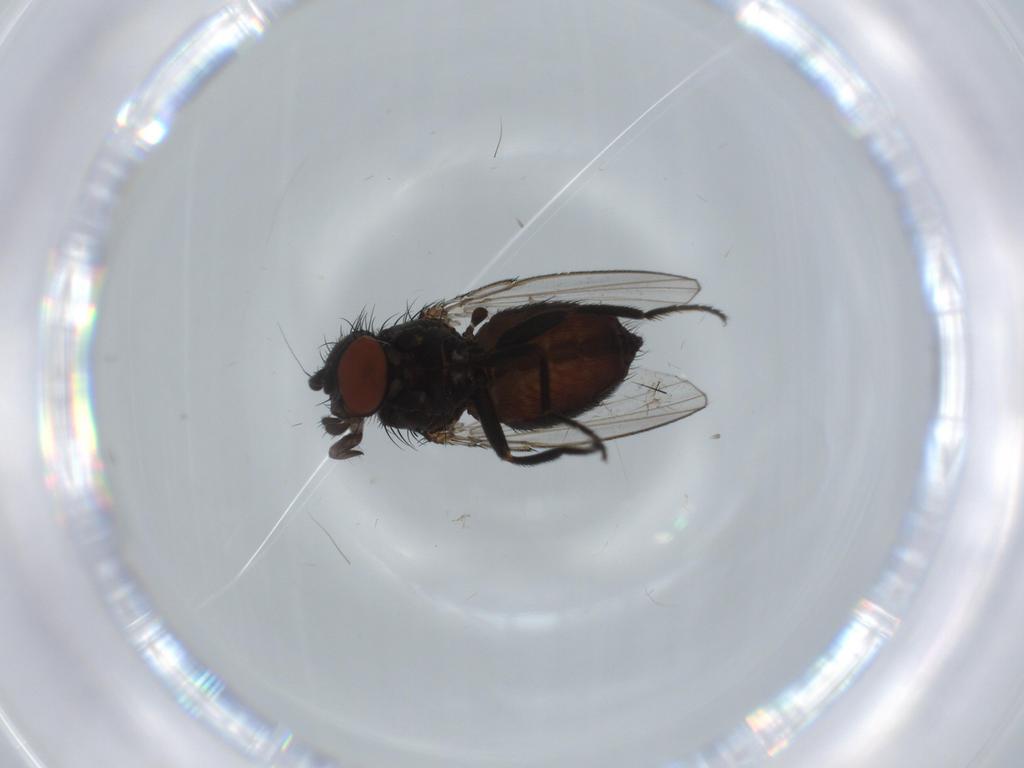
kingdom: Animalia
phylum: Arthropoda
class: Insecta
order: Diptera
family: Milichiidae
